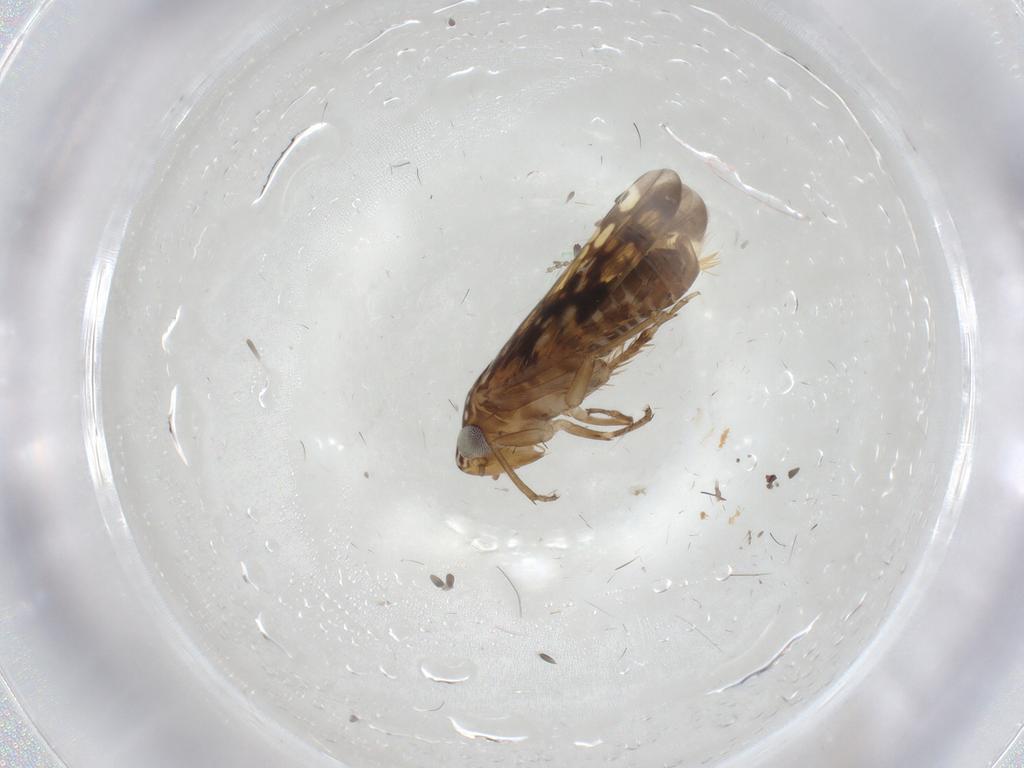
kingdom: Animalia
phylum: Arthropoda
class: Insecta
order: Hemiptera
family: Cicadellidae
